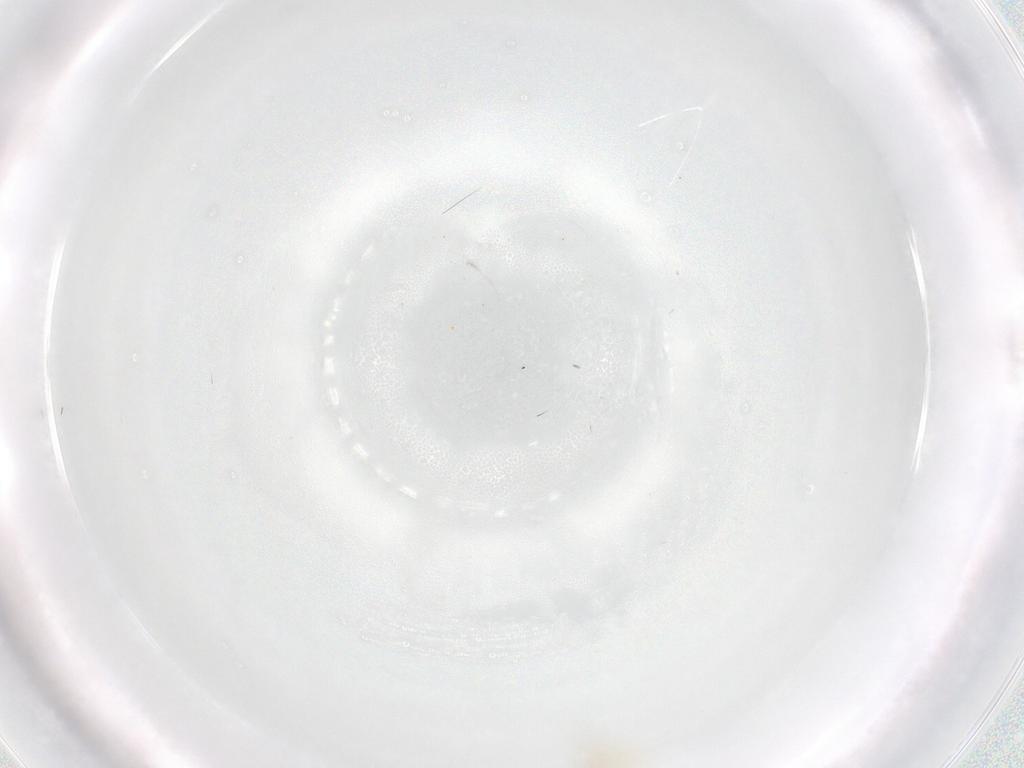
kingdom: Animalia
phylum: Arthropoda
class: Insecta
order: Diptera
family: Cecidomyiidae
